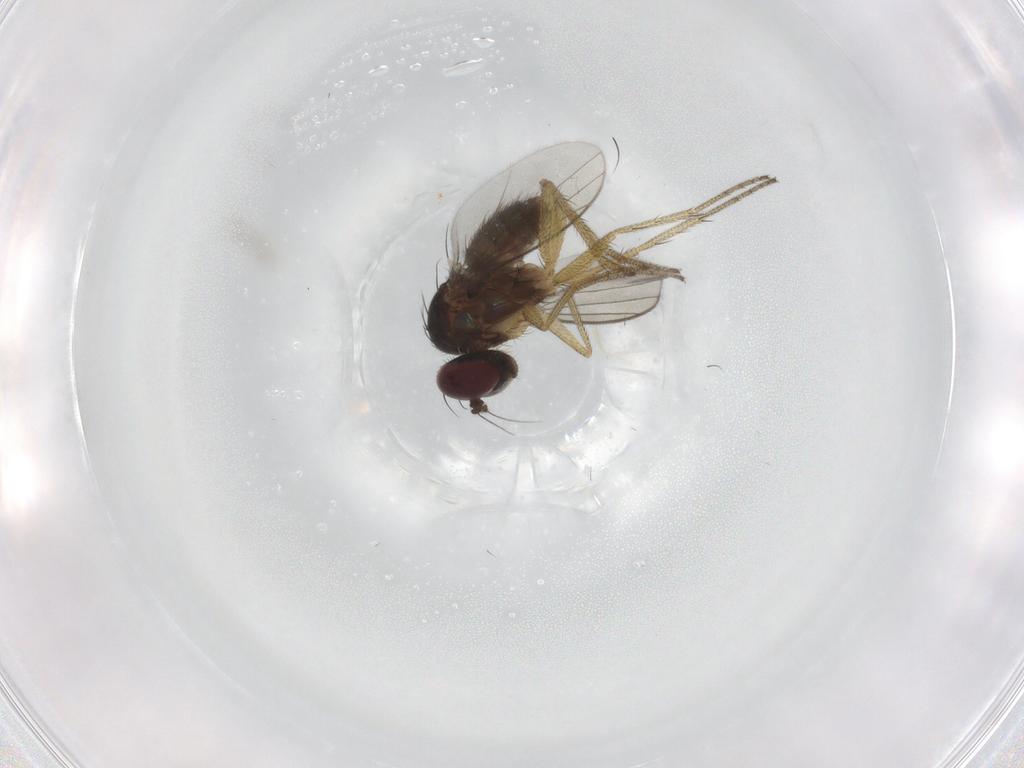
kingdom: Animalia
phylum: Arthropoda
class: Insecta
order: Diptera
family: Dolichopodidae
